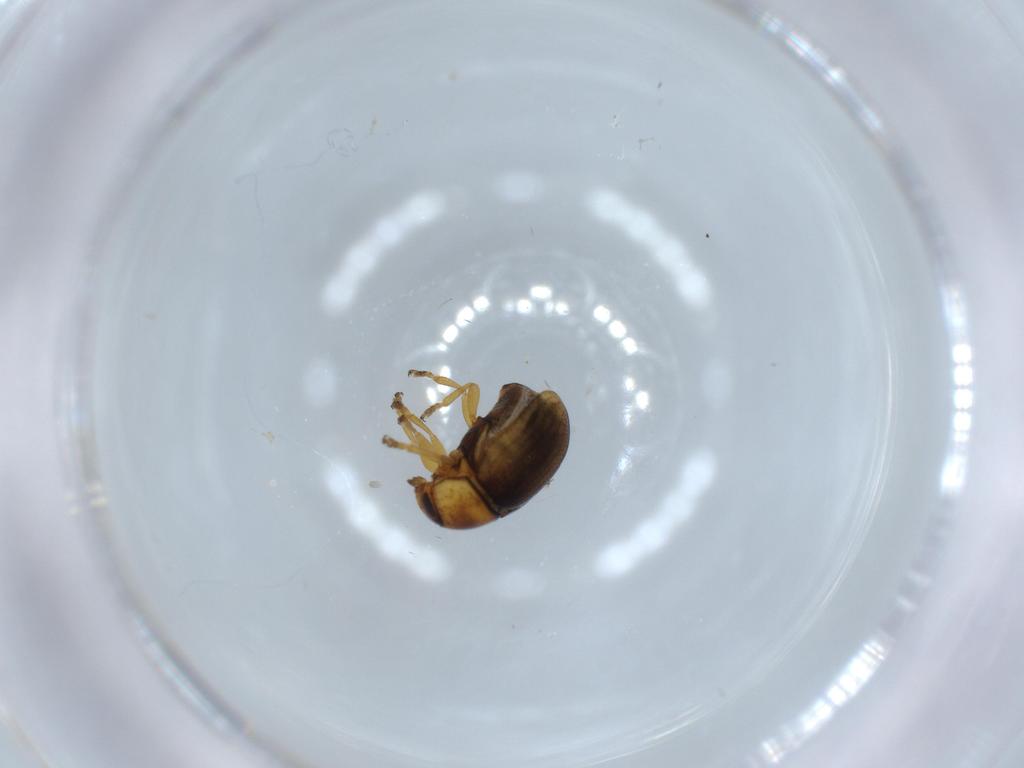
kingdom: Animalia
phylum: Arthropoda
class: Insecta
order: Coleoptera
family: Chrysomelidae
